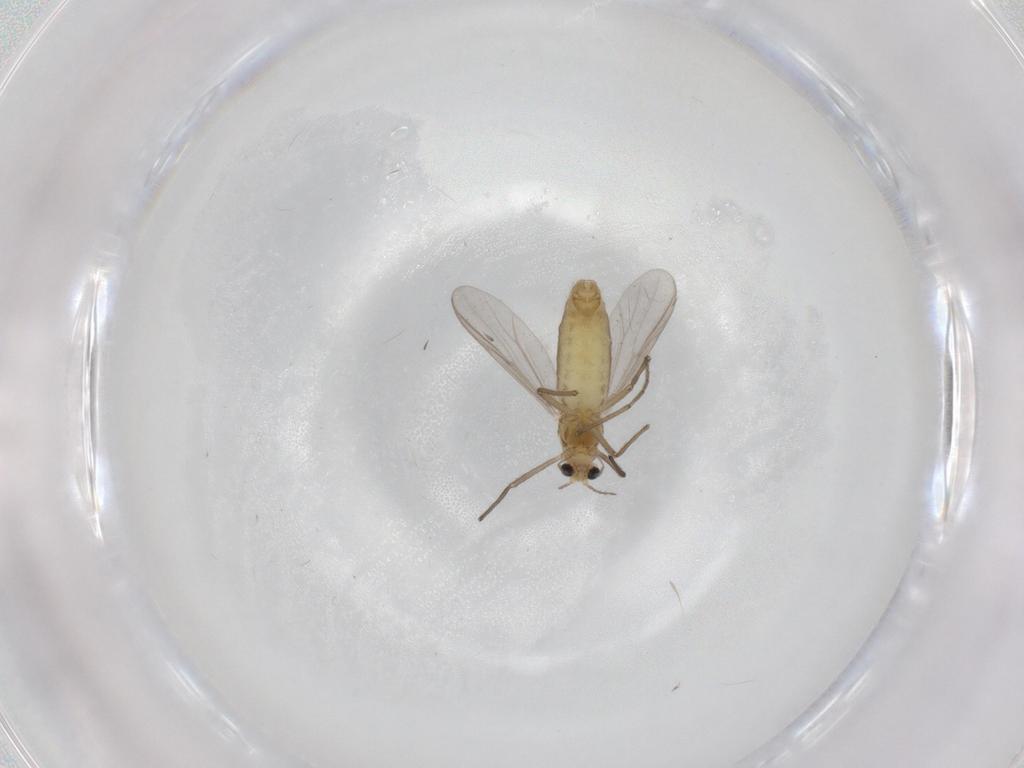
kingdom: Animalia
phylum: Arthropoda
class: Insecta
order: Diptera
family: Chironomidae
